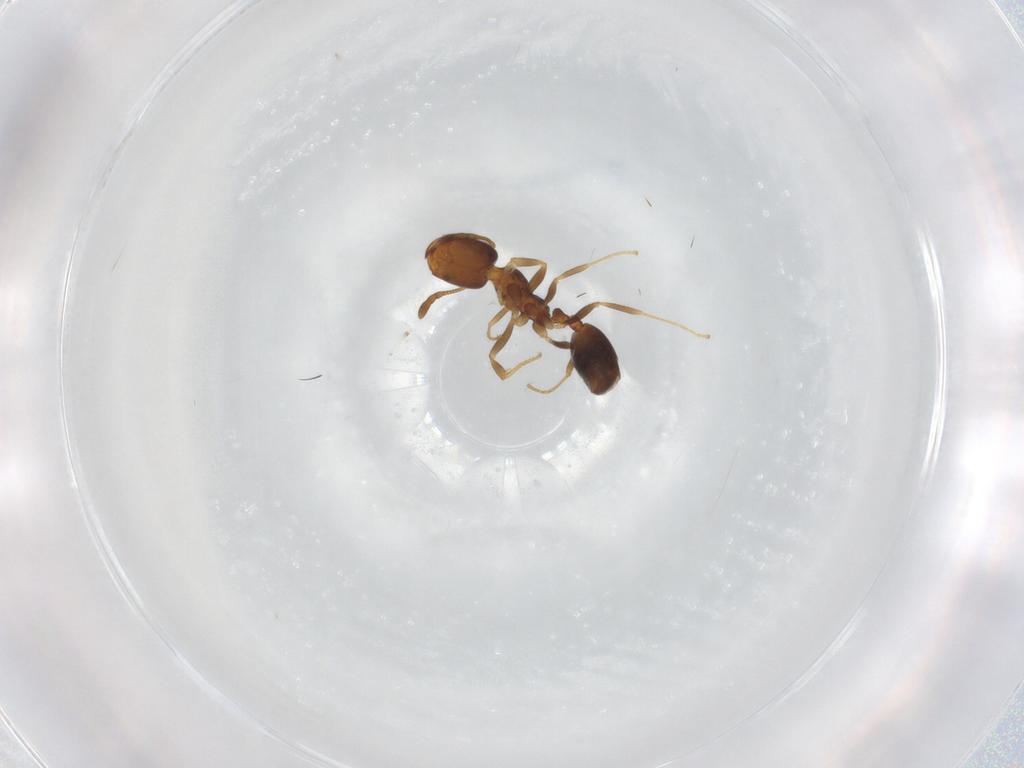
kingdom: Animalia
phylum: Arthropoda
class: Insecta
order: Hymenoptera
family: Formicidae
